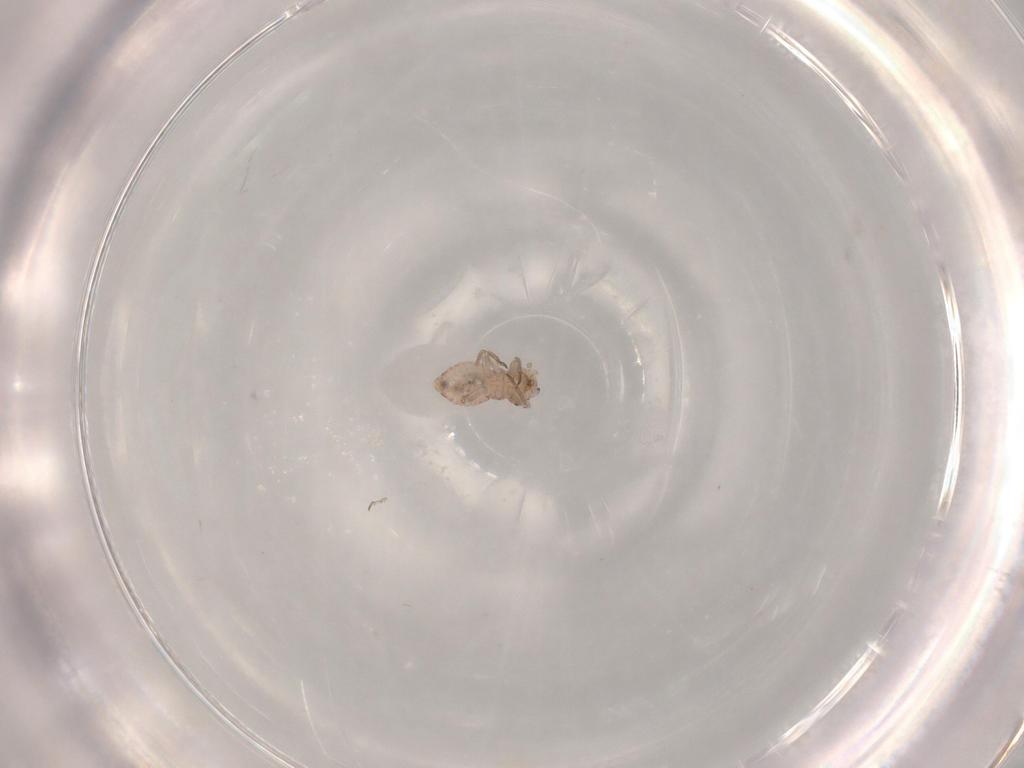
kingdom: Animalia
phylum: Arthropoda
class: Insecta
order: Psocodea
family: Psocidae
